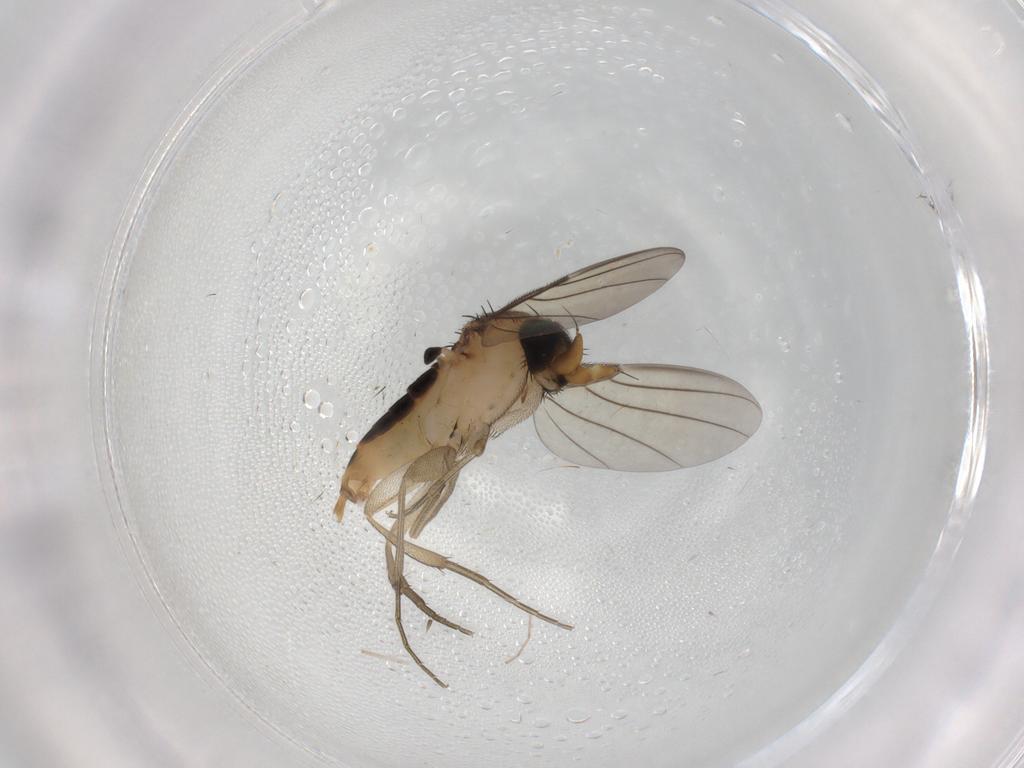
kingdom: Animalia
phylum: Arthropoda
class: Insecta
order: Diptera
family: Phoridae
